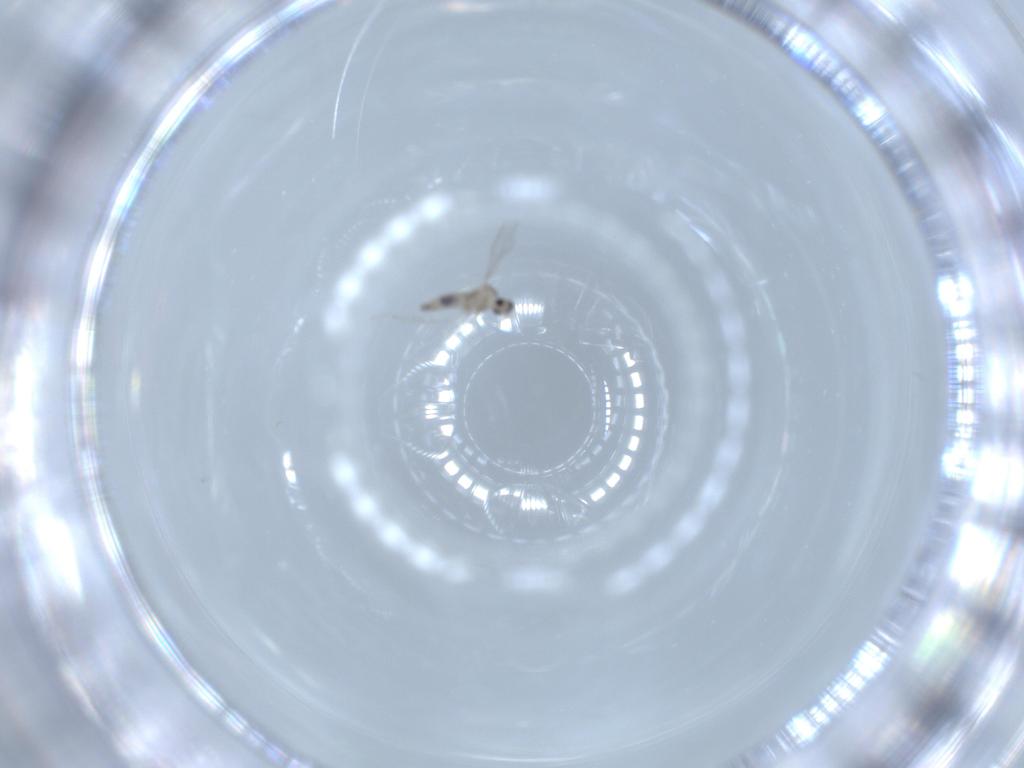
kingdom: Animalia
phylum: Arthropoda
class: Insecta
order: Diptera
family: Cecidomyiidae
